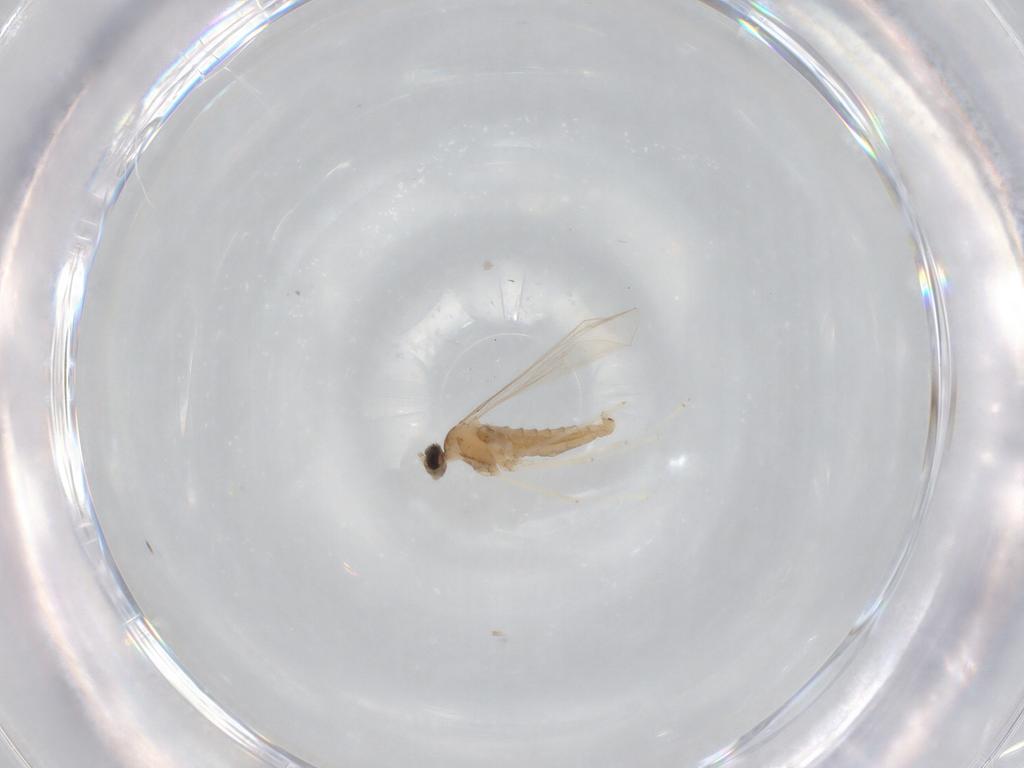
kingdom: Animalia
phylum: Arthropoda
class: Insecta
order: Diptera
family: Cecidomyiidae
